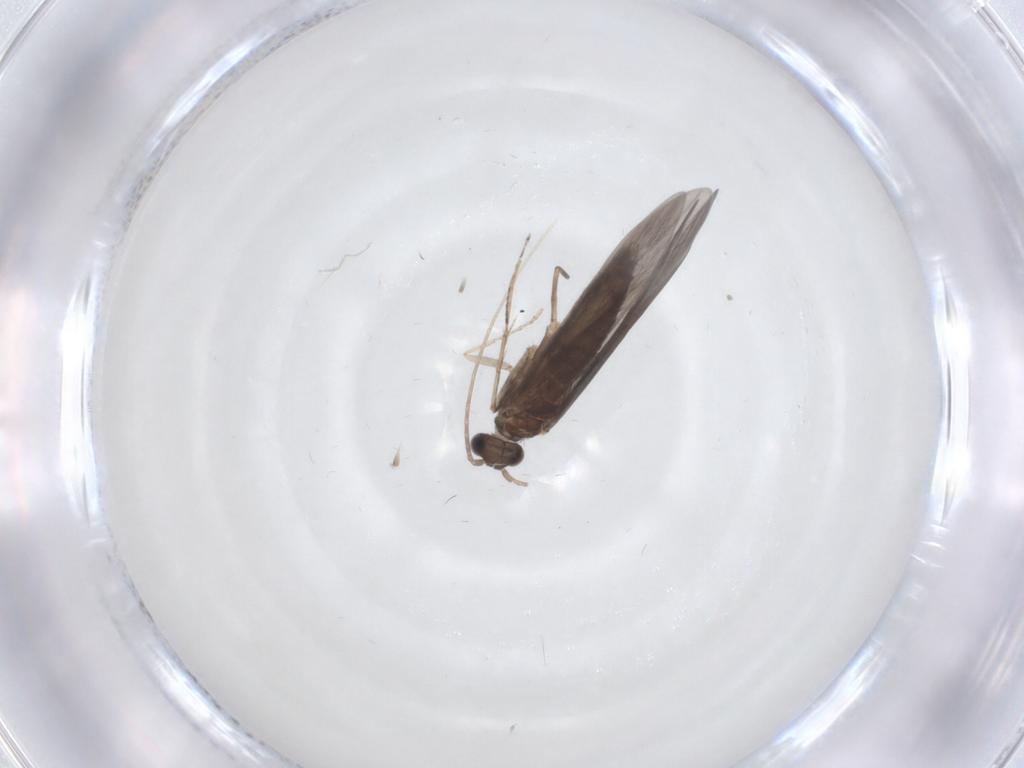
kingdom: Animalia
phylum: Arthropoda
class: Insecta
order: Trichoptera
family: Xiphocentronidae
